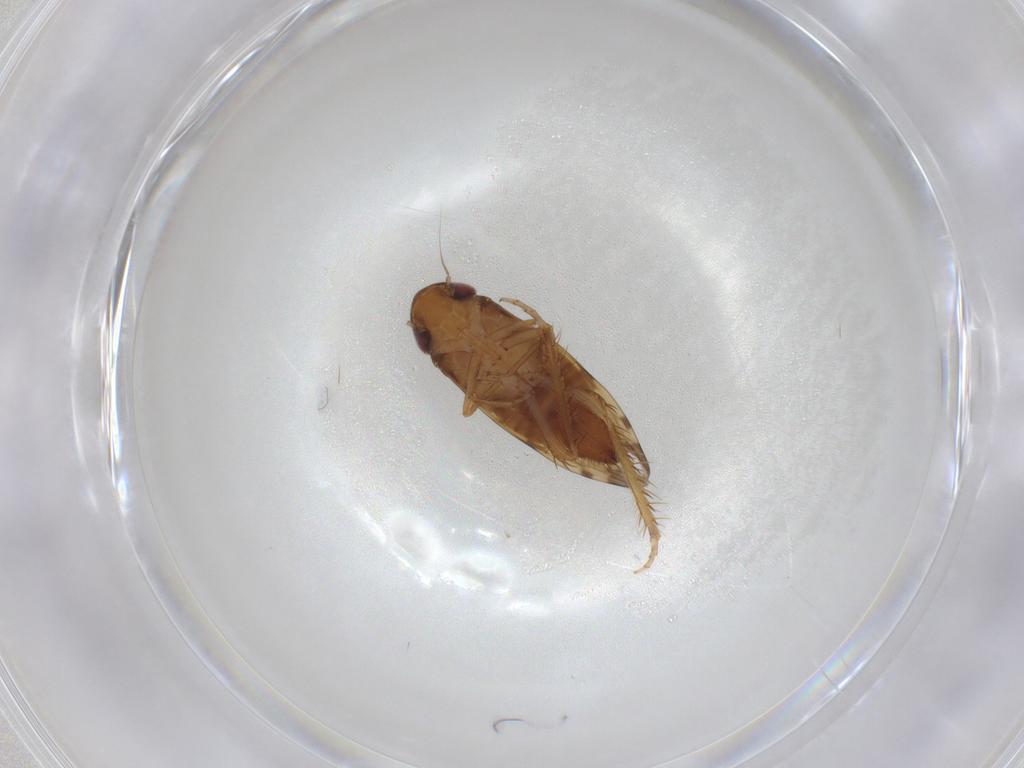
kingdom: Animalia
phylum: Arthropoda
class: Insecta
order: Hemiptera
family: Cicadellidae
